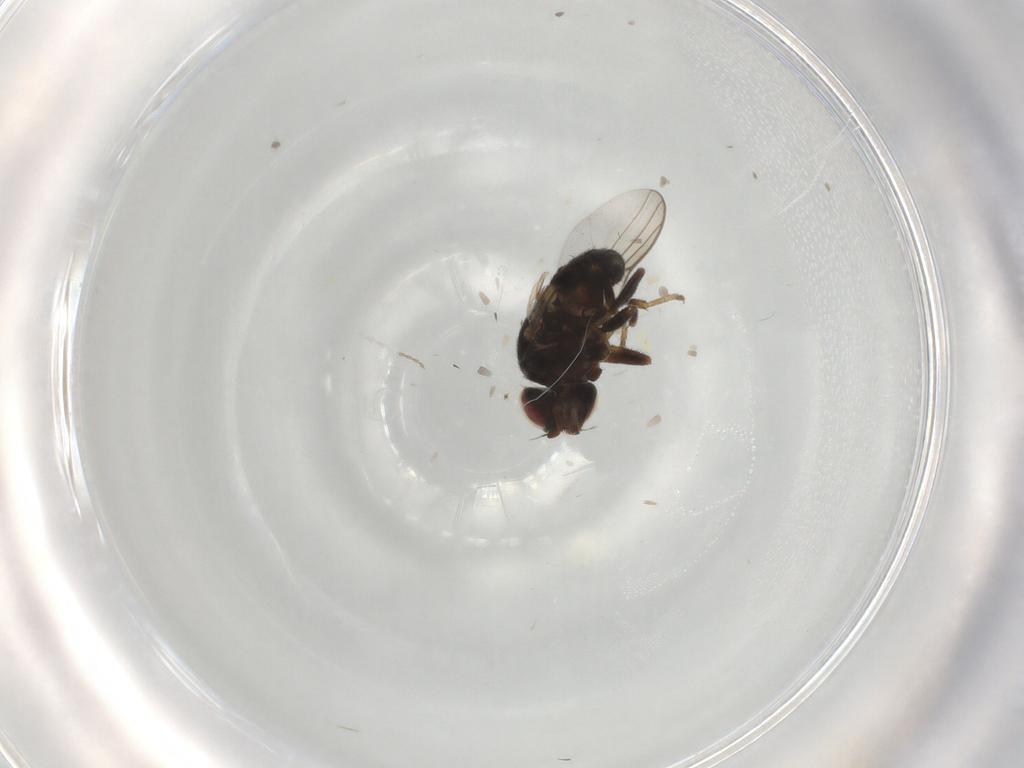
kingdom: Animalia
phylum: Arthropoda
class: Insecta
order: Diptera
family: Chloropidae
